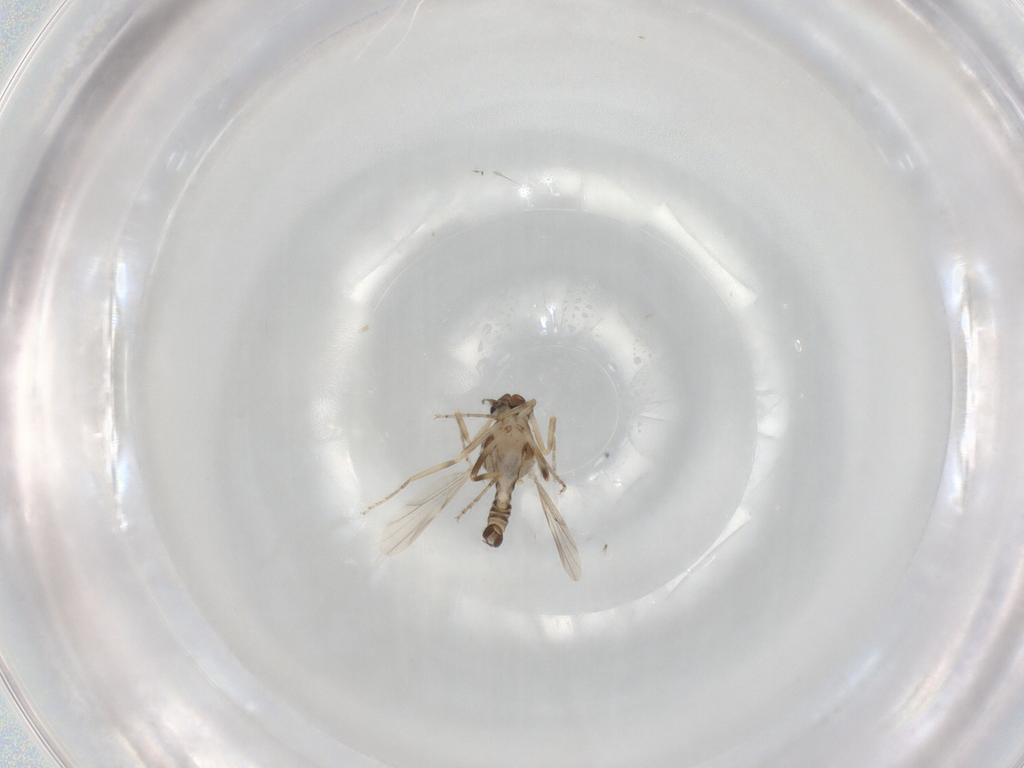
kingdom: Animalia
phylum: Arthropoda
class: Insecta
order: Diptera
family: Ceratopogonidae
